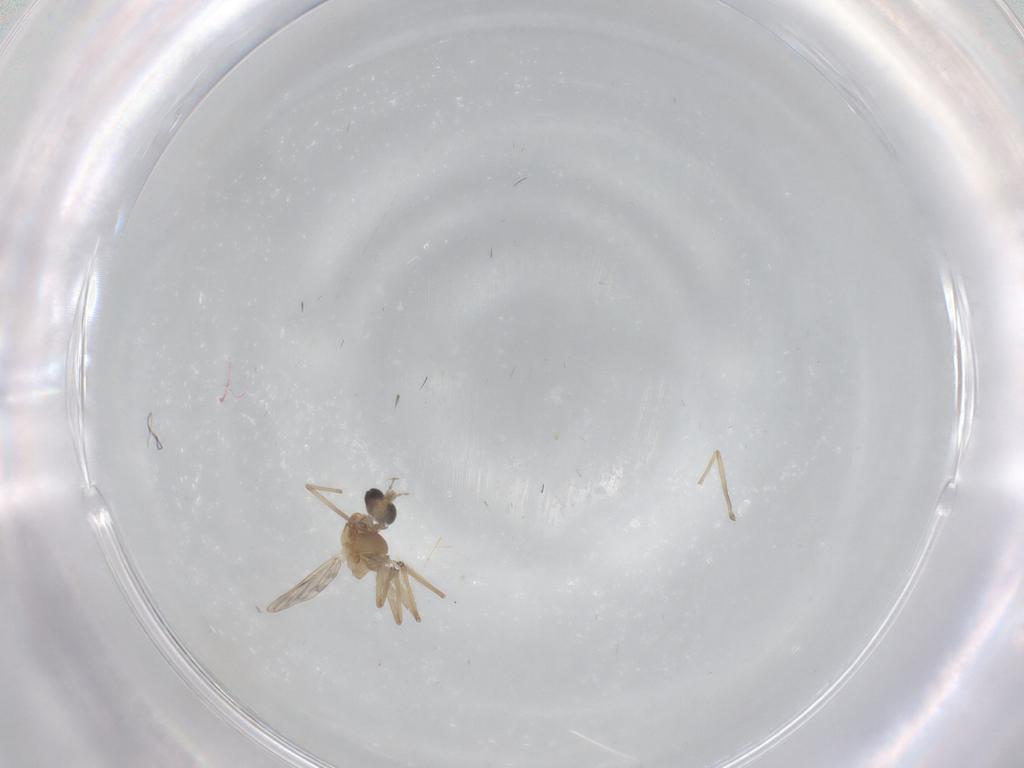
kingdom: Animalia
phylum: Arthropoda
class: Insecta
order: Diptera
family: Chironomidae
